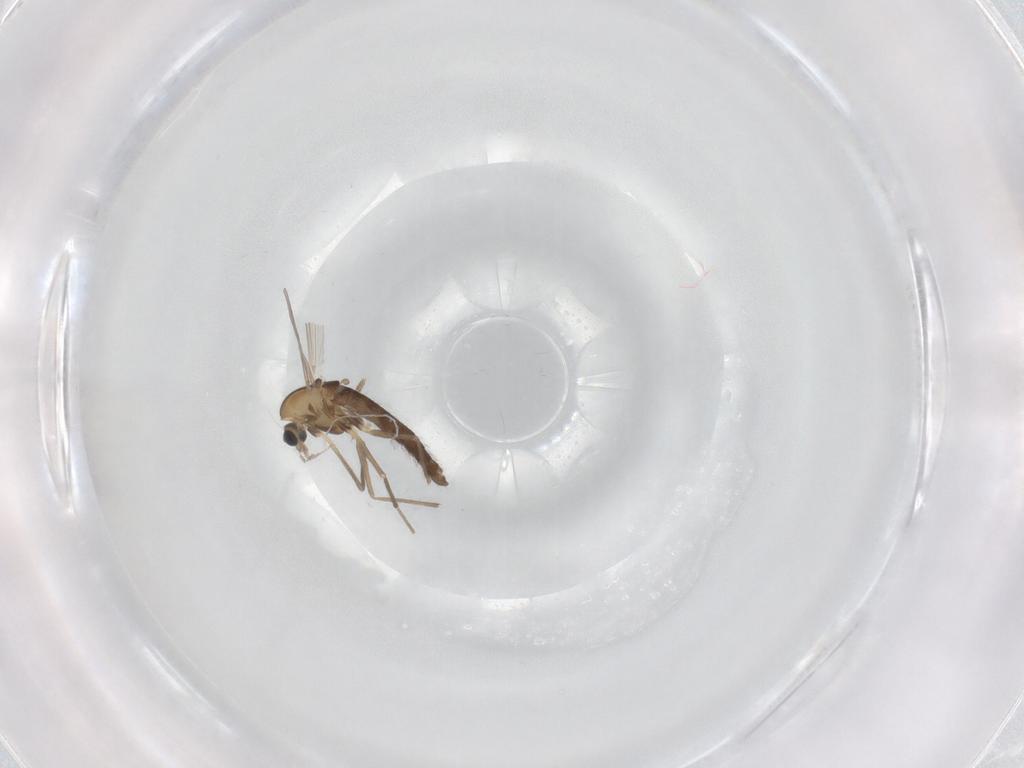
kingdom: Animalia
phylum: Arthropoda
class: Insecta
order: Diptera
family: Chironomidae
